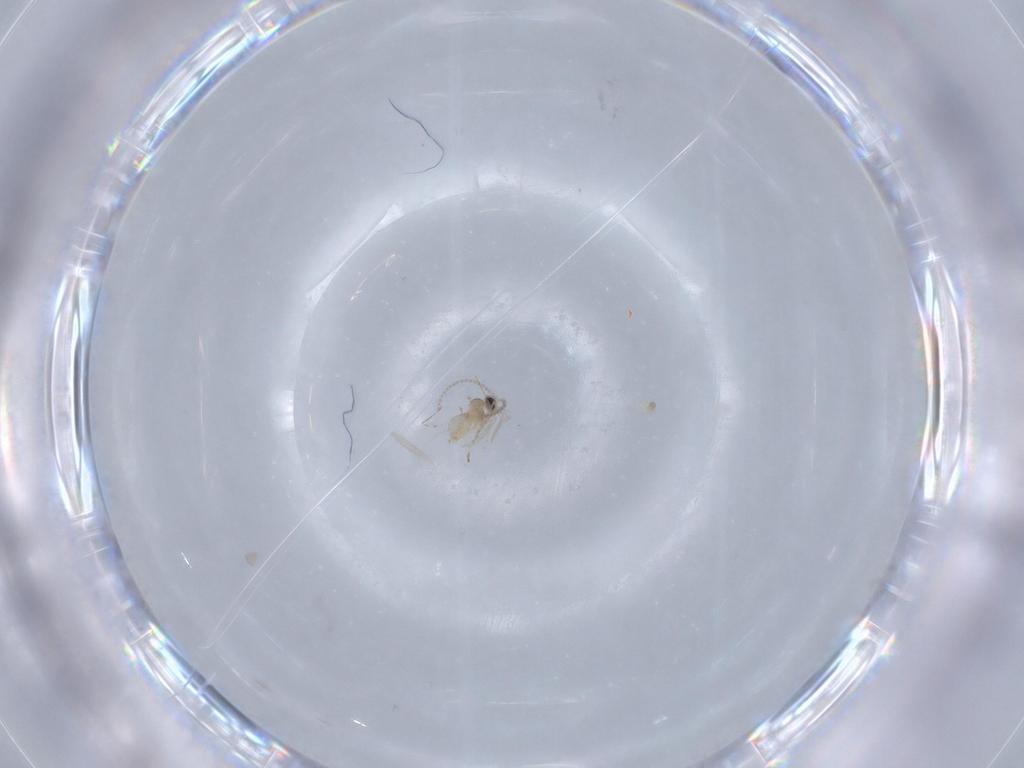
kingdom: Animalia
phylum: Arthropoda
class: Insecta
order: Diptera
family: Cecidomyiidae
